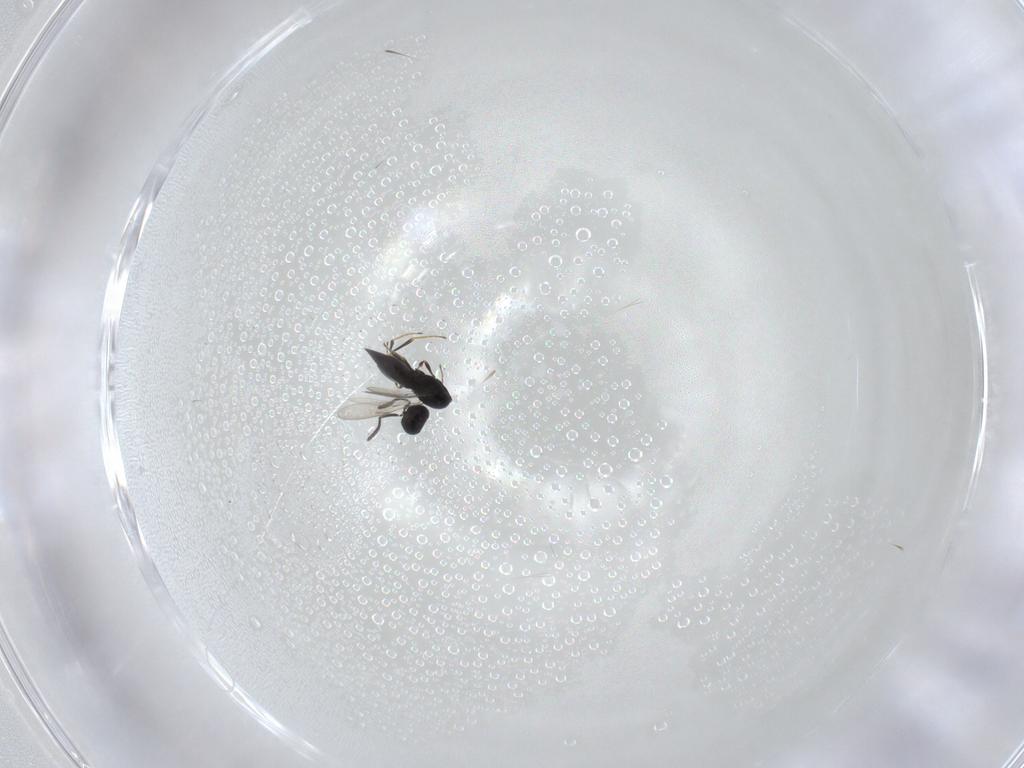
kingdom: Animalia
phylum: Arthropoda
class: Insecta
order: Hymenoptera
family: Scelionidae
